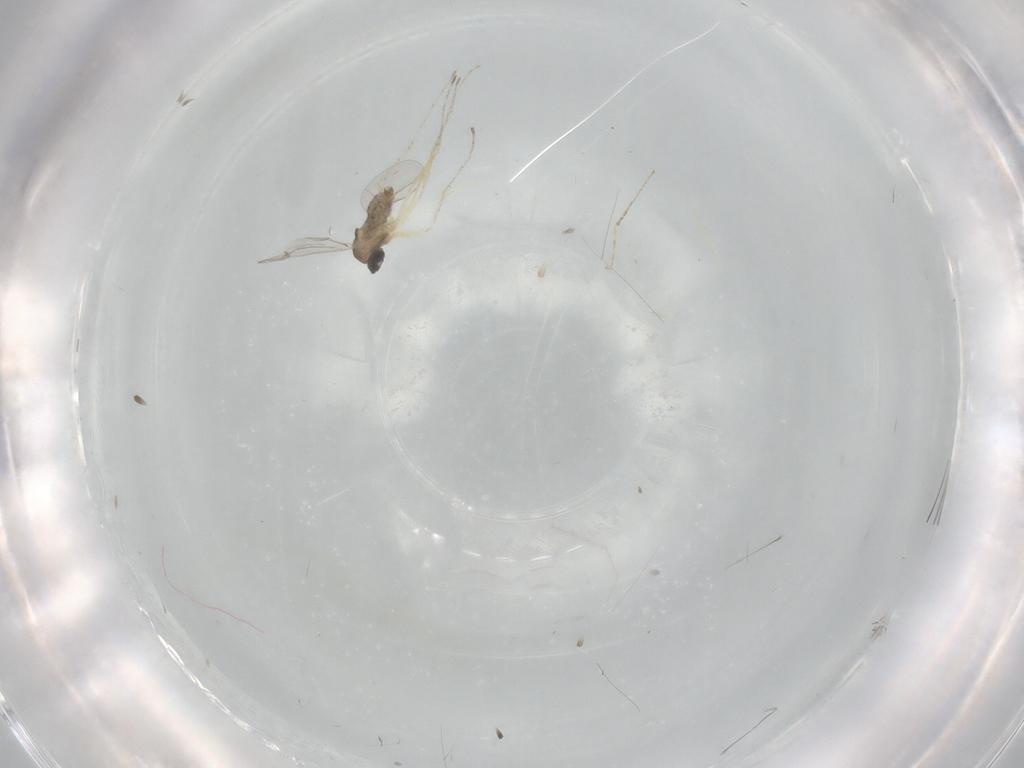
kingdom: Animalia
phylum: Arthropoda
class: Insecta
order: Diptera
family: Cecidomyiidae
